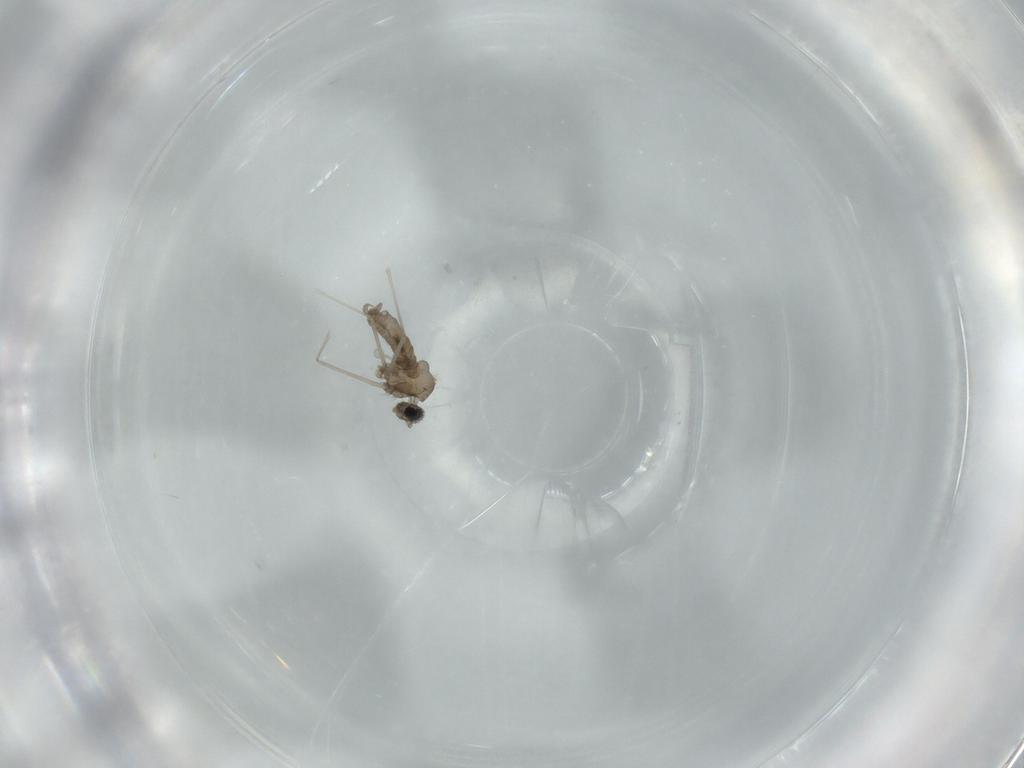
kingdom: Animalia
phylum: Arthropoda
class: Insecta
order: Diptera
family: Cecidomyiidae
